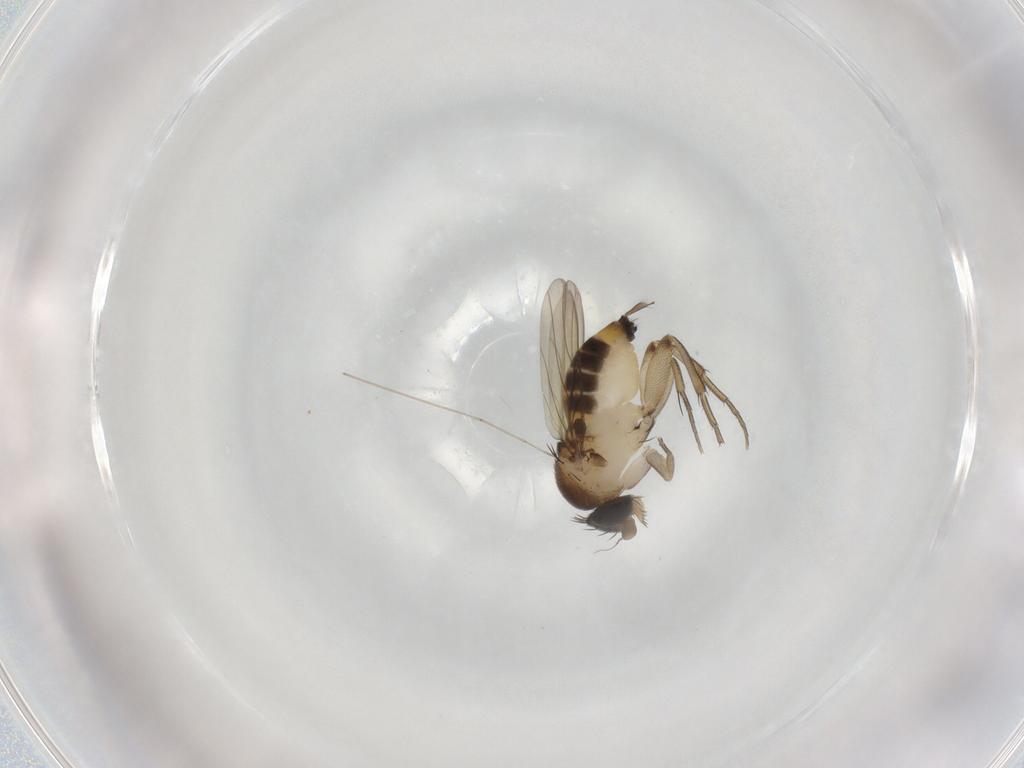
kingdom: Animalia
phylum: Arthropoda
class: Insecta
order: Diptera
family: Phoridae
